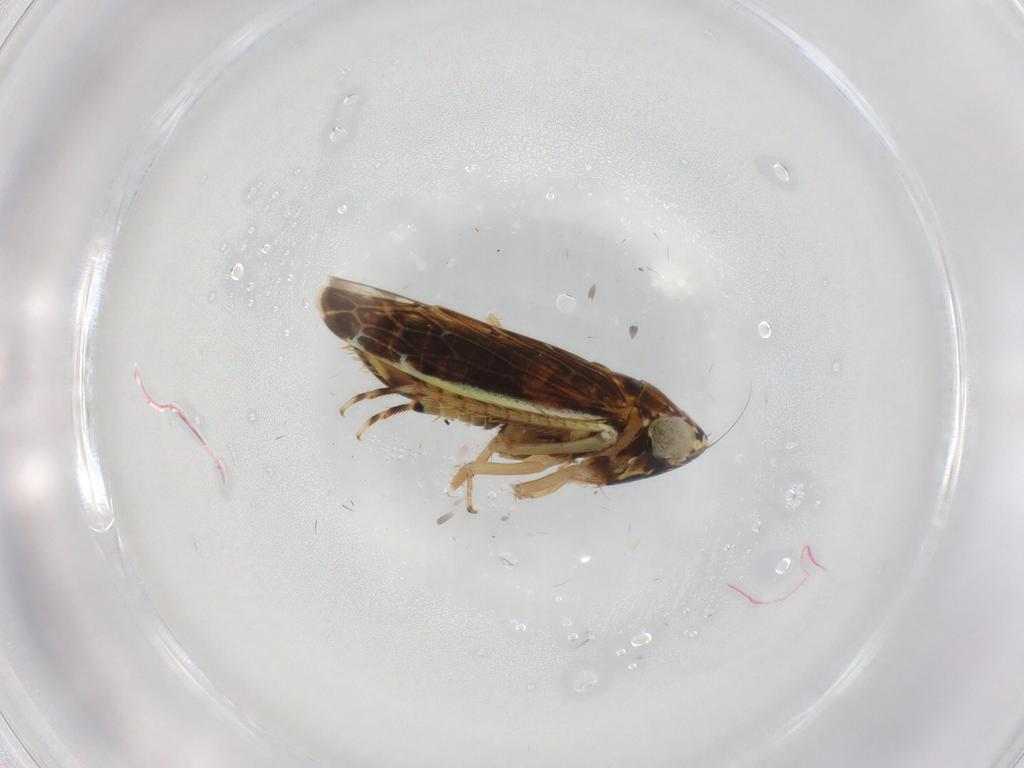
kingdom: Animalia
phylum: Arthropoda
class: Insecta
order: Hemiptera
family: Cicadellidae
